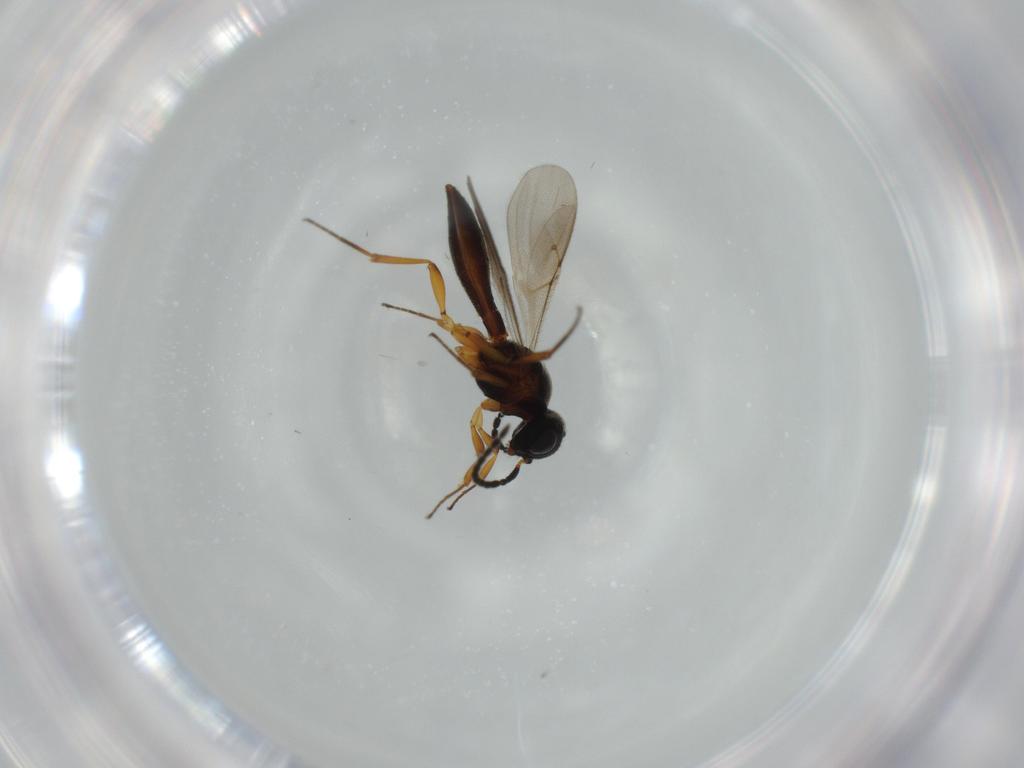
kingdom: Animalia
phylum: Arthropoda
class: Insecta
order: Hymenoptera
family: Scelionidae
